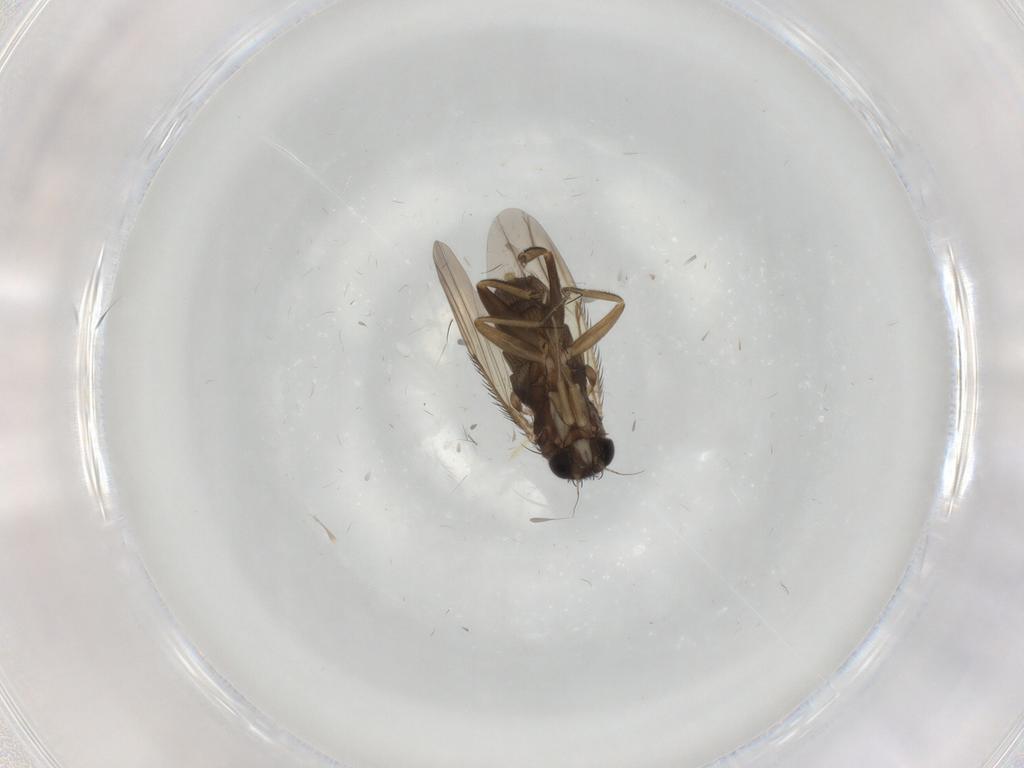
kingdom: Animalia
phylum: Arthropoda
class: Insecta
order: Diptera
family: Phoridae
